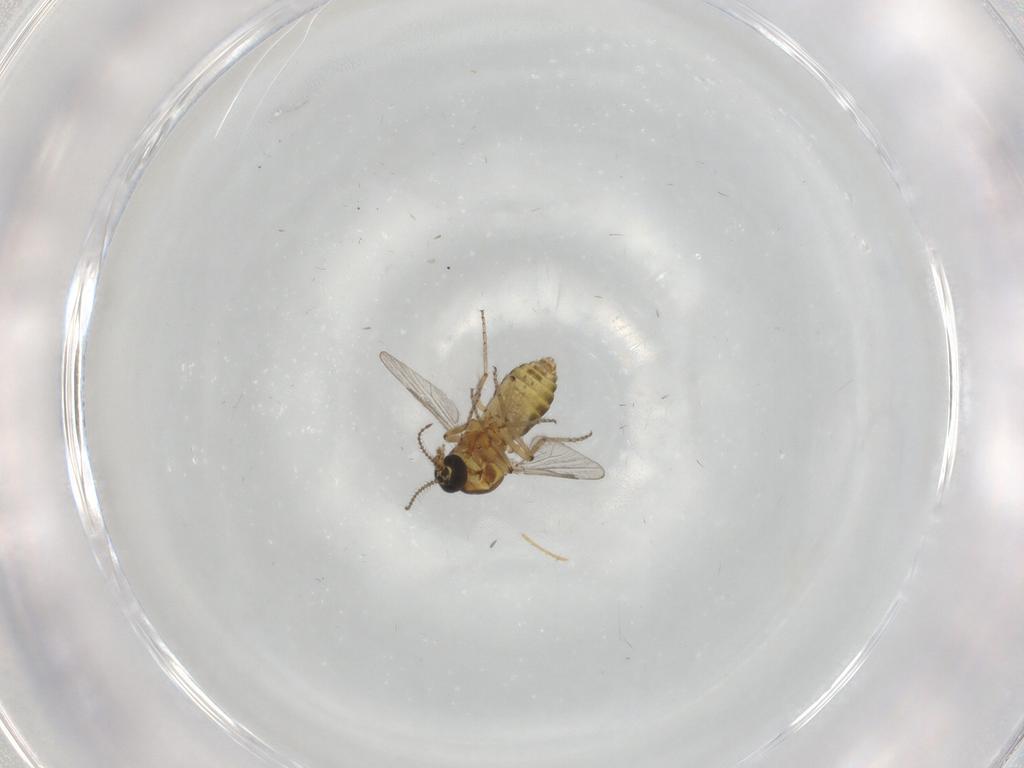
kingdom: Animalia
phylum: Arthropoda
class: Insecta
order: Diptera
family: Ceratopogonidae
